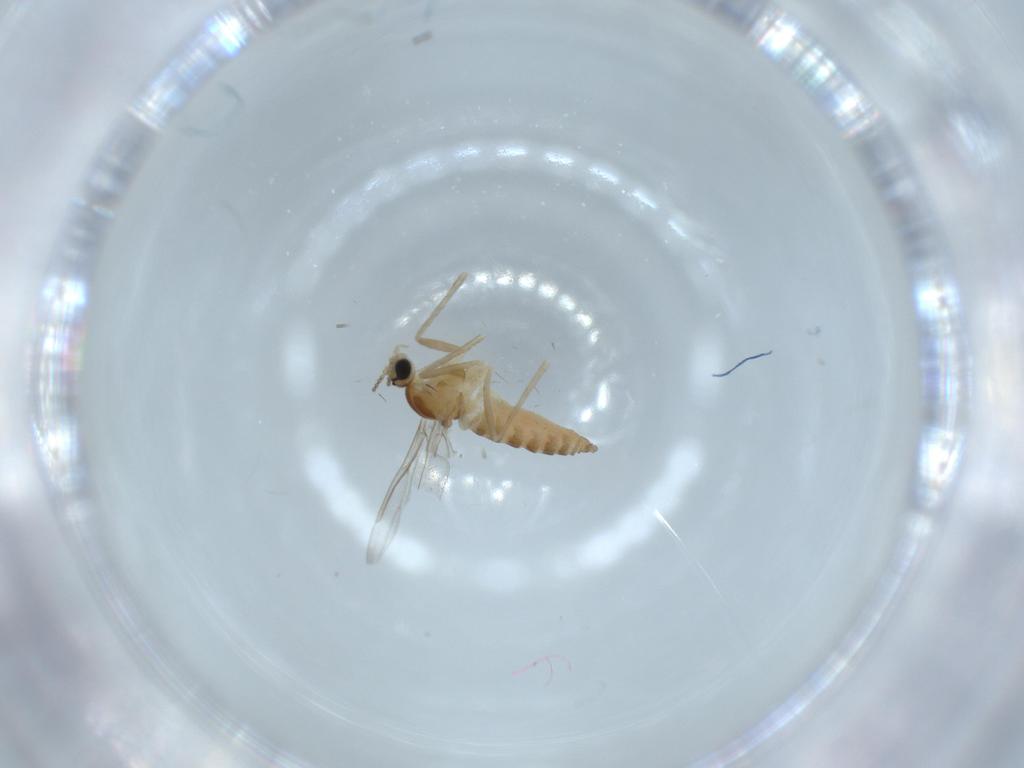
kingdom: Animalia
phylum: Arthropoda
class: Insecta
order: Diptera
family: Cecidomyiidae
